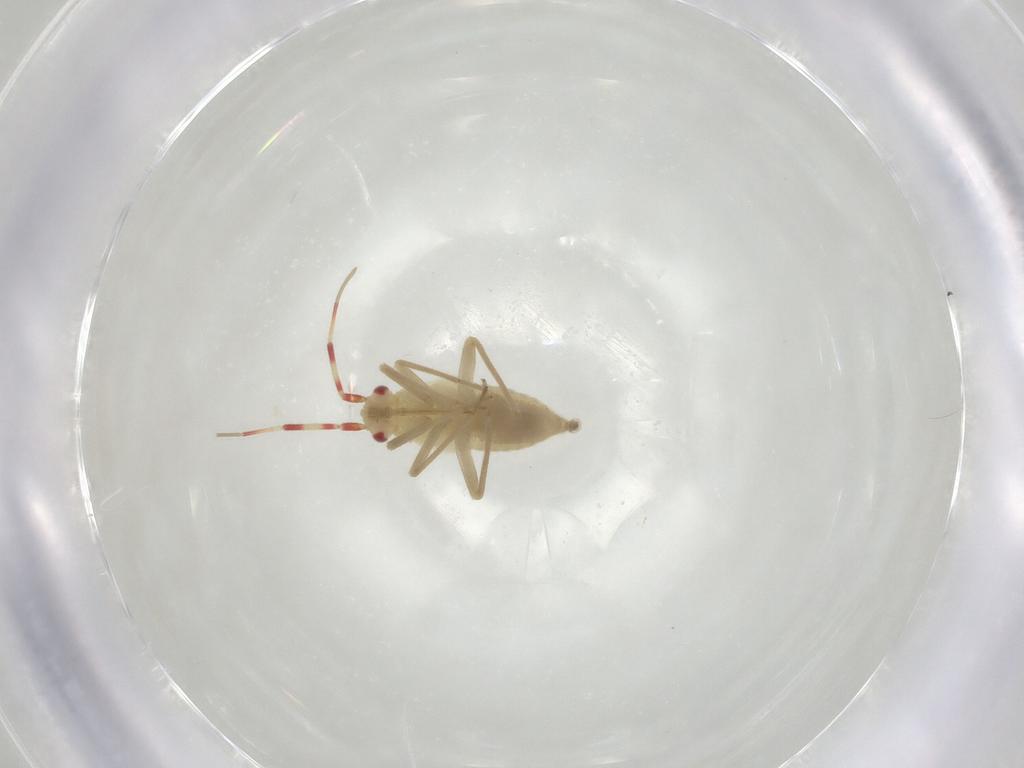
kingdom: Animalia
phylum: Arthropoda
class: Insecta
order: Hemiptera
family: Miridae
